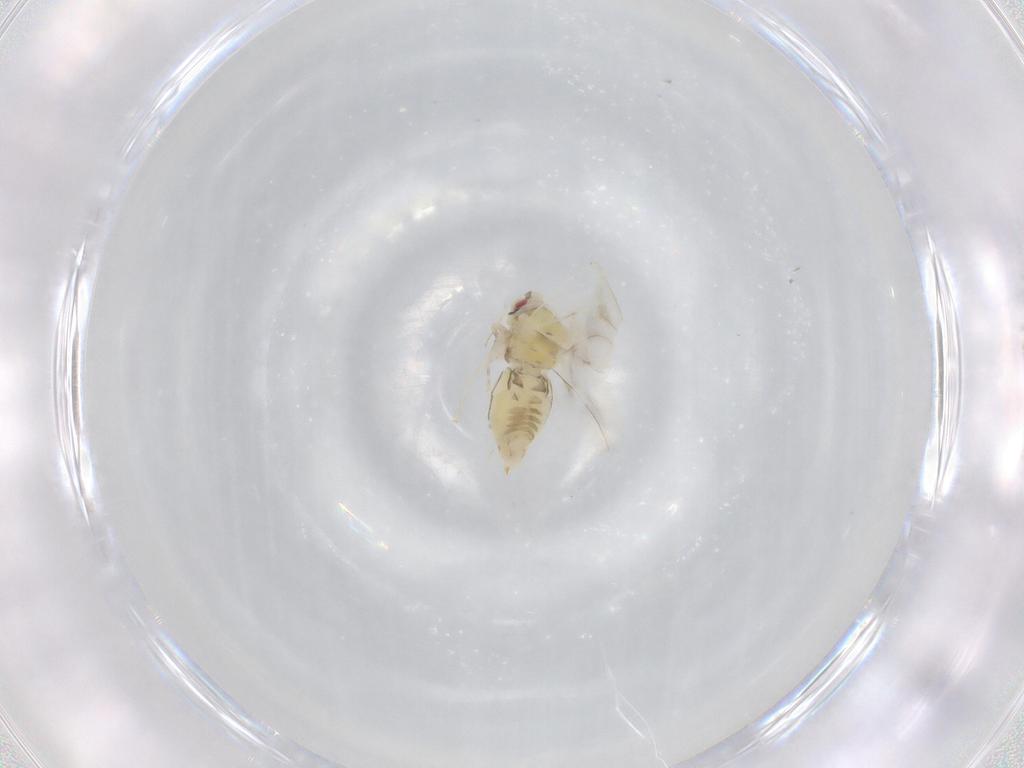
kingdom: Animalia
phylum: Arthropoda
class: Insecta
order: Hemiptera
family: Aleyrodidae
